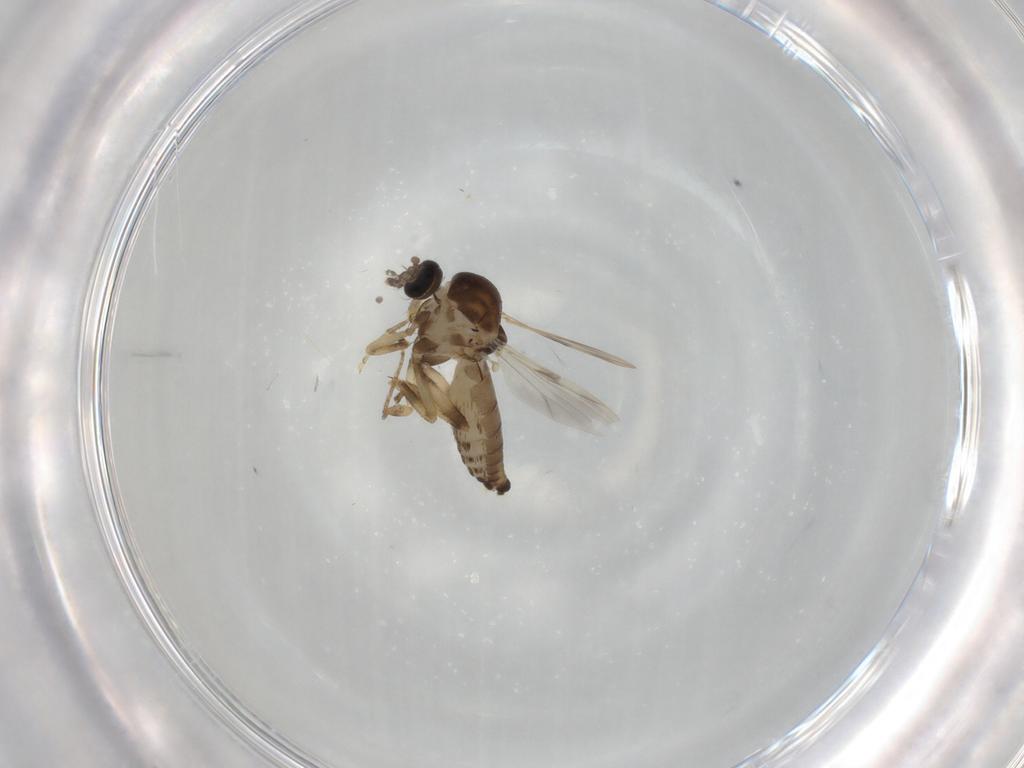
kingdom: Animalia
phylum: Arthropoda
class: Insecta
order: Diptera
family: Ceratopogonidae
